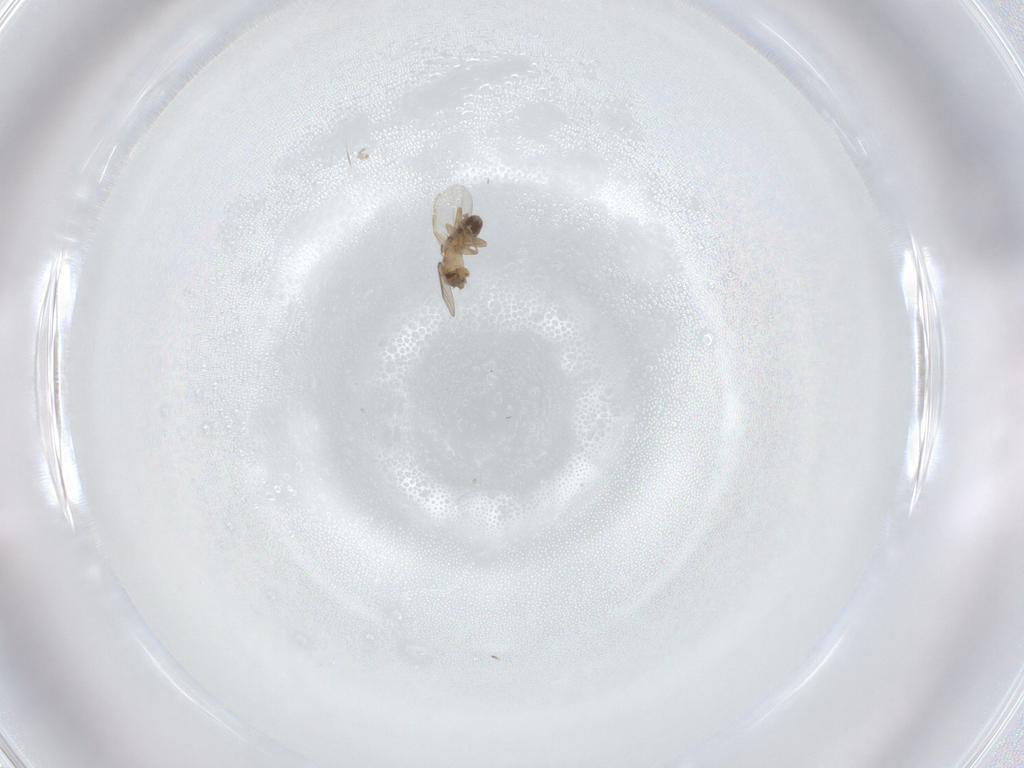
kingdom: Animalia
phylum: Arthropoda
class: Insecta
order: Diptera
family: Phoridae
